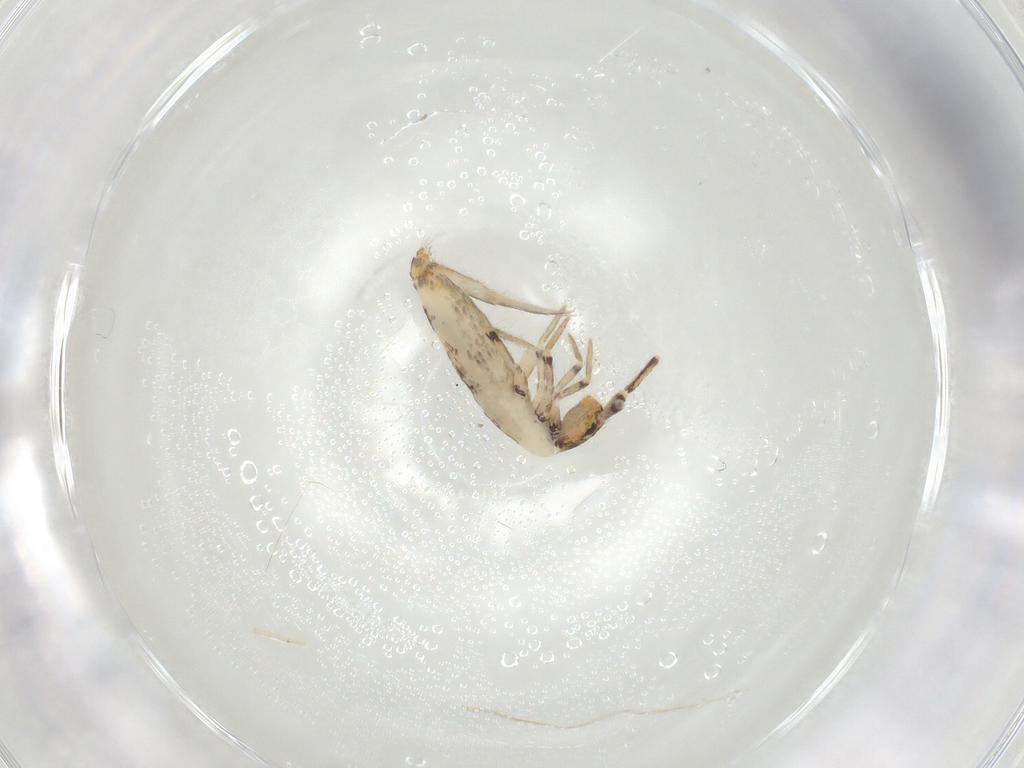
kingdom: Animalia
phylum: Arthropoda
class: Collembola
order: Entomobryomorpha
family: Entomobryidae
